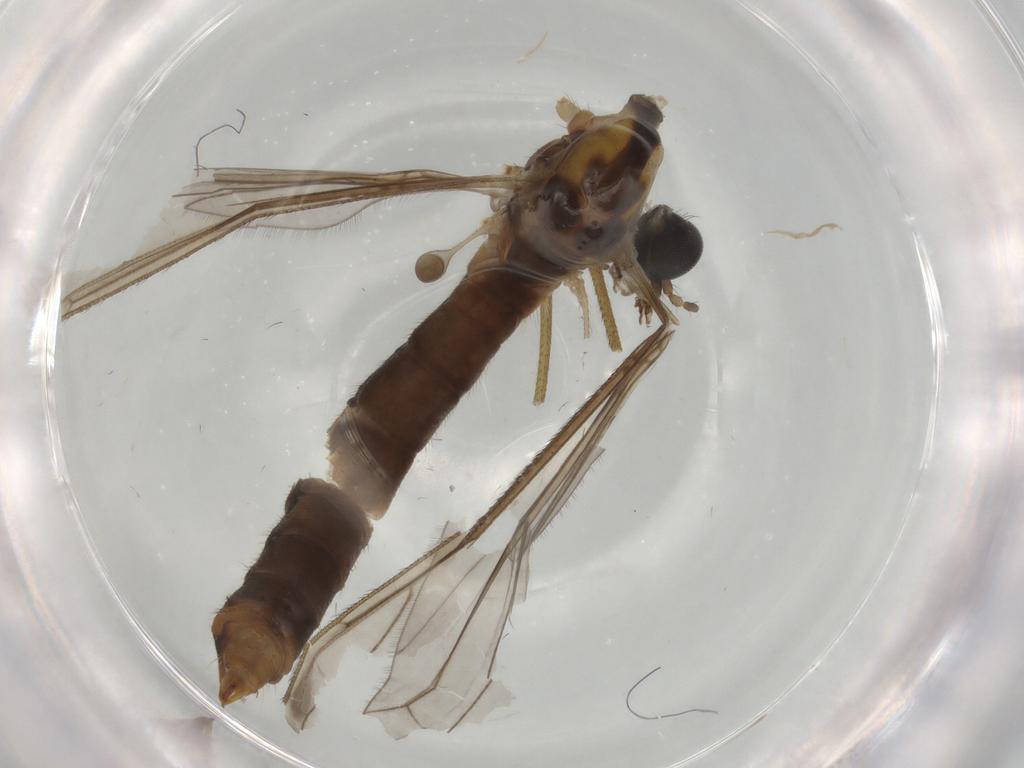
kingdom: Animalia
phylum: Arthropoda
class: Insecta
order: Diptera
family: Limoniidae
